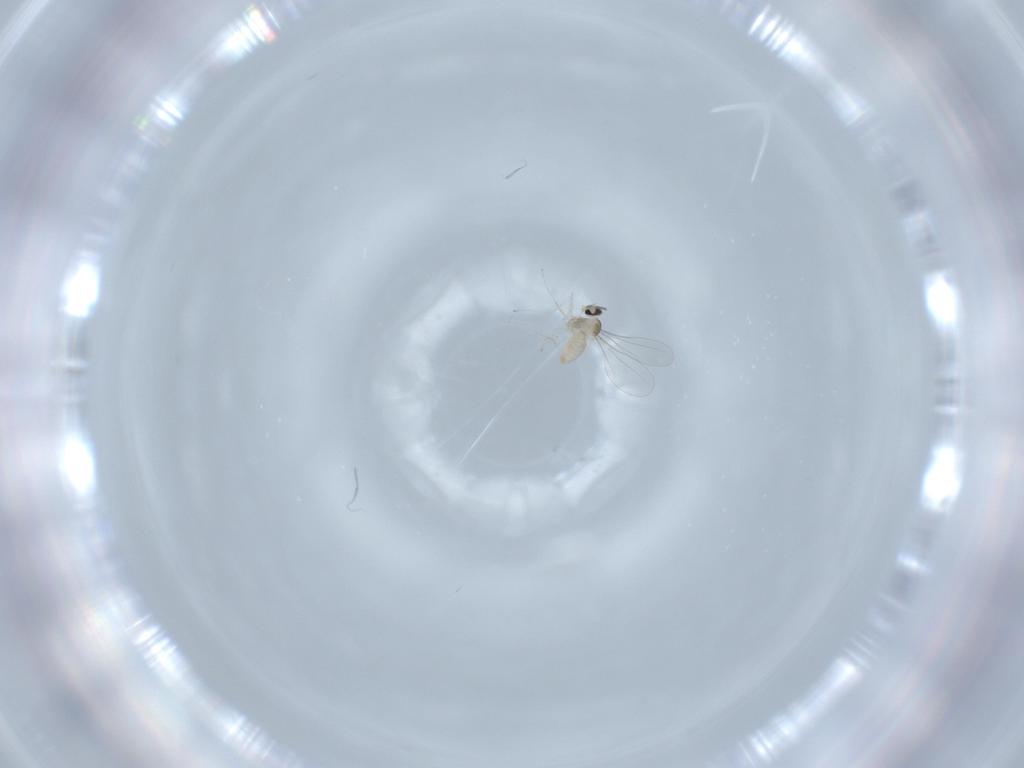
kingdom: Animalia
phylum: Arthropoda
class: Insecta
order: Diptera
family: Cecidomyiidae
